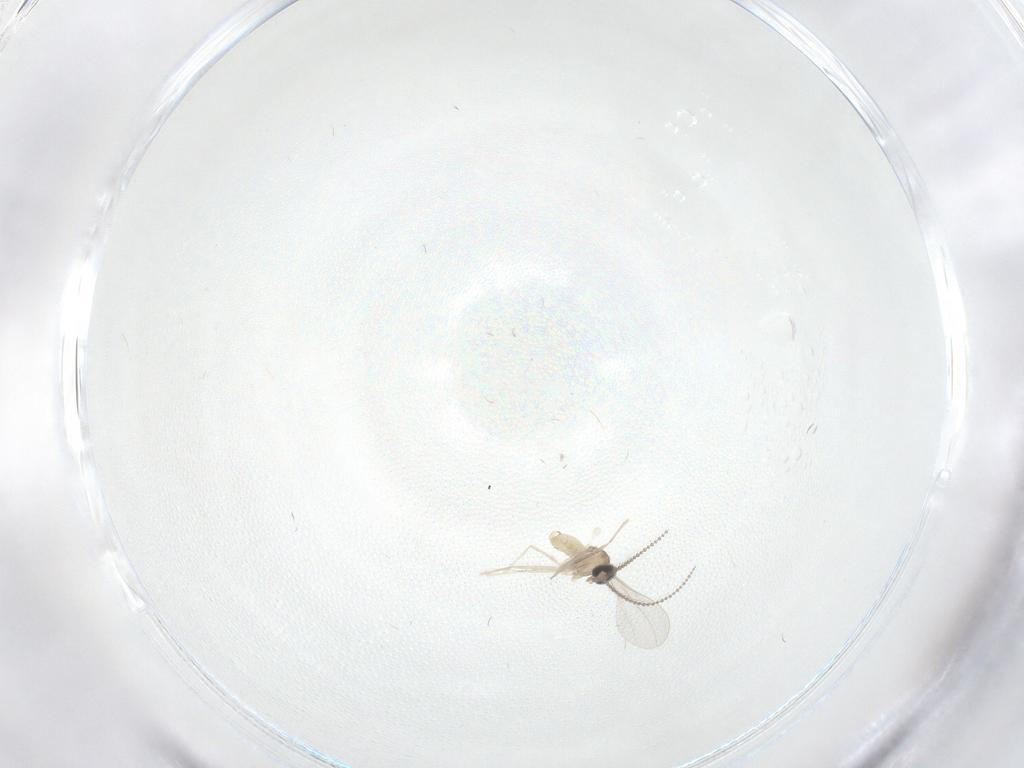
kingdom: Animalia
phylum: Arthropoda
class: Insecta
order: Diptera
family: Cecidomyiidae
